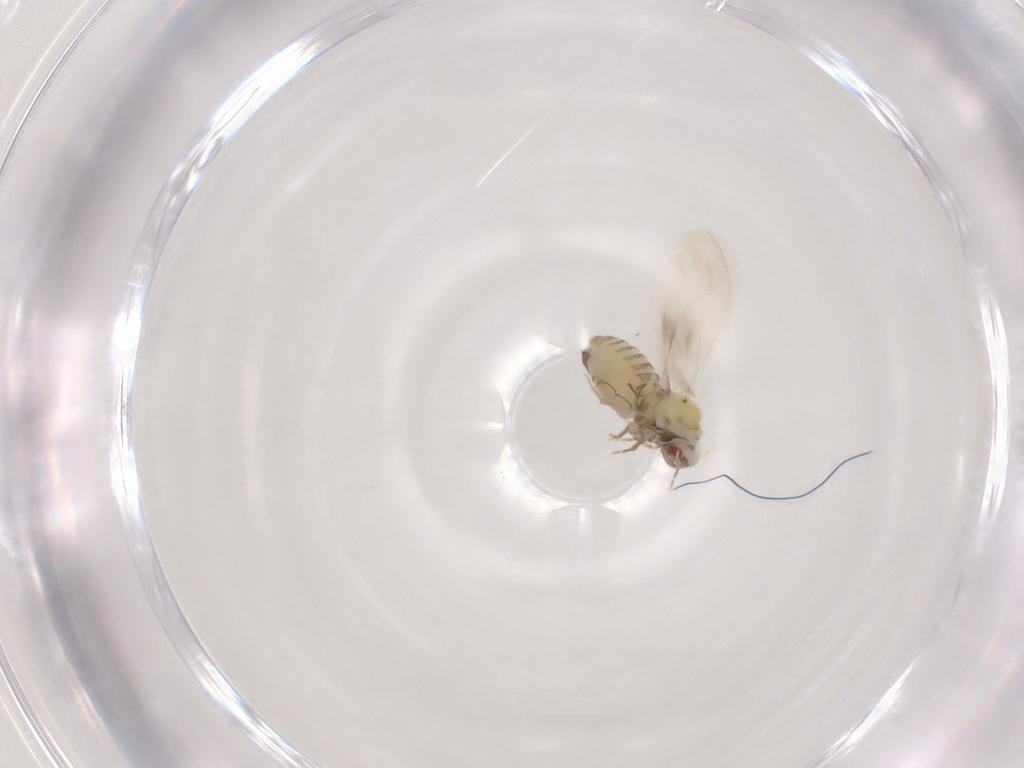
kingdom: Animalia
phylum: Arthropoda
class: Insecta
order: Hemiptera
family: Aleyrodidae
